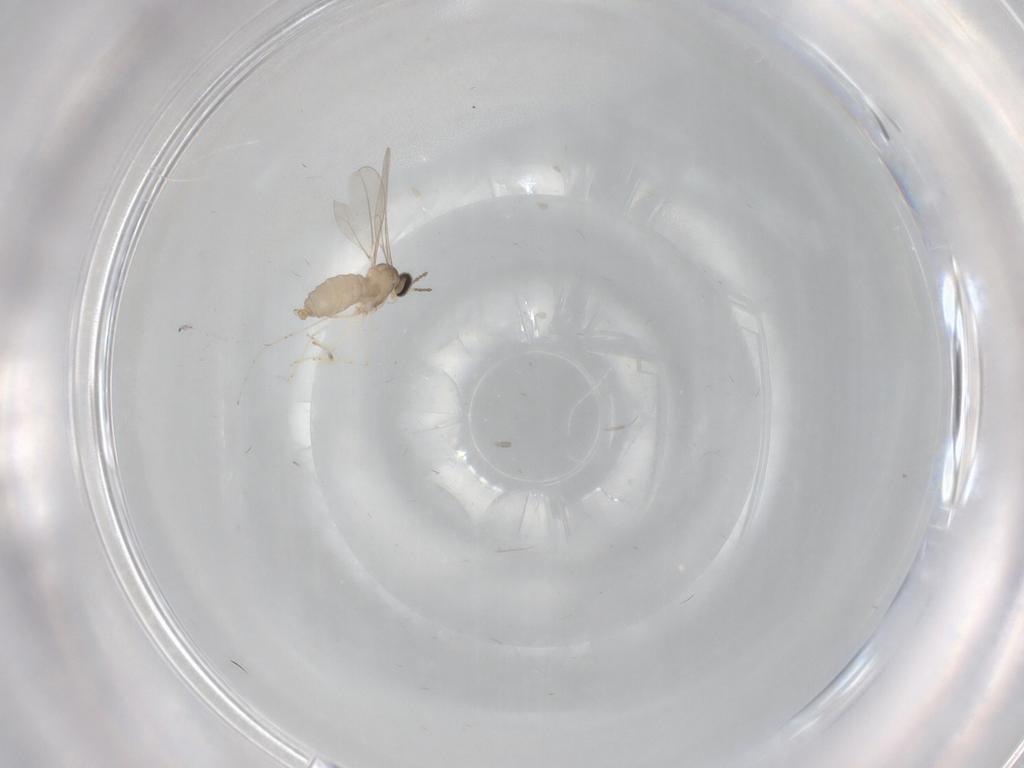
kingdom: Animalia
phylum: Arthropoda
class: Insecta
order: Diptera
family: Cecidomyiidae
